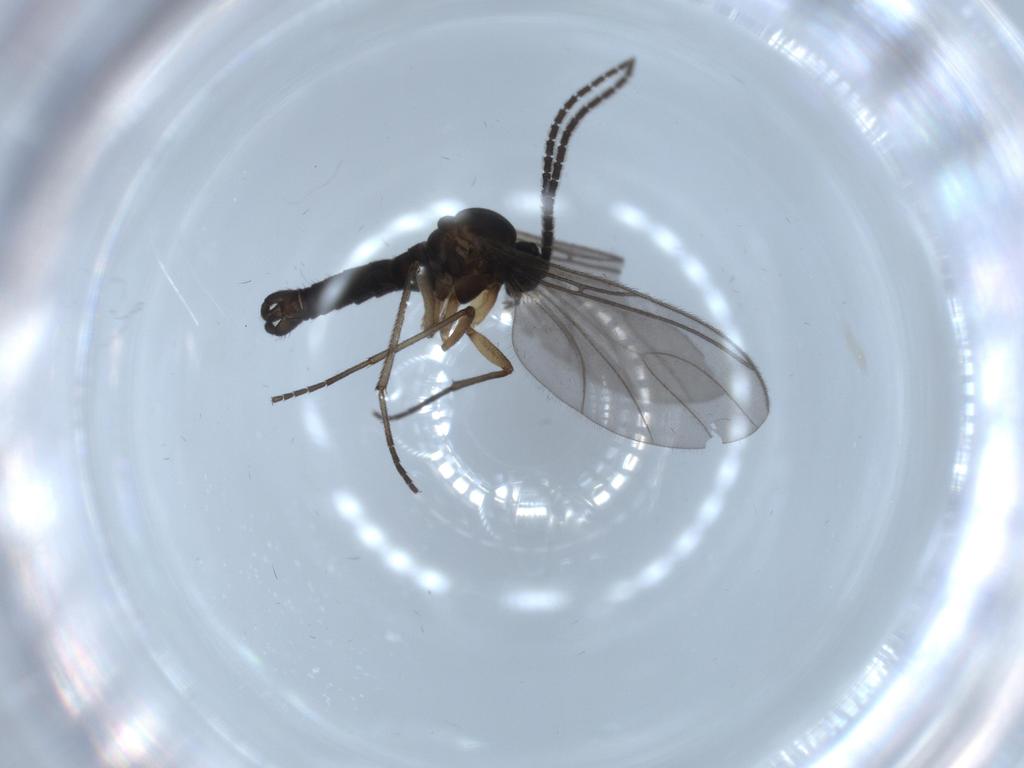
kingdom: Animalia
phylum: Arthropoda
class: Insecta
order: Diptera
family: Sciaridae
